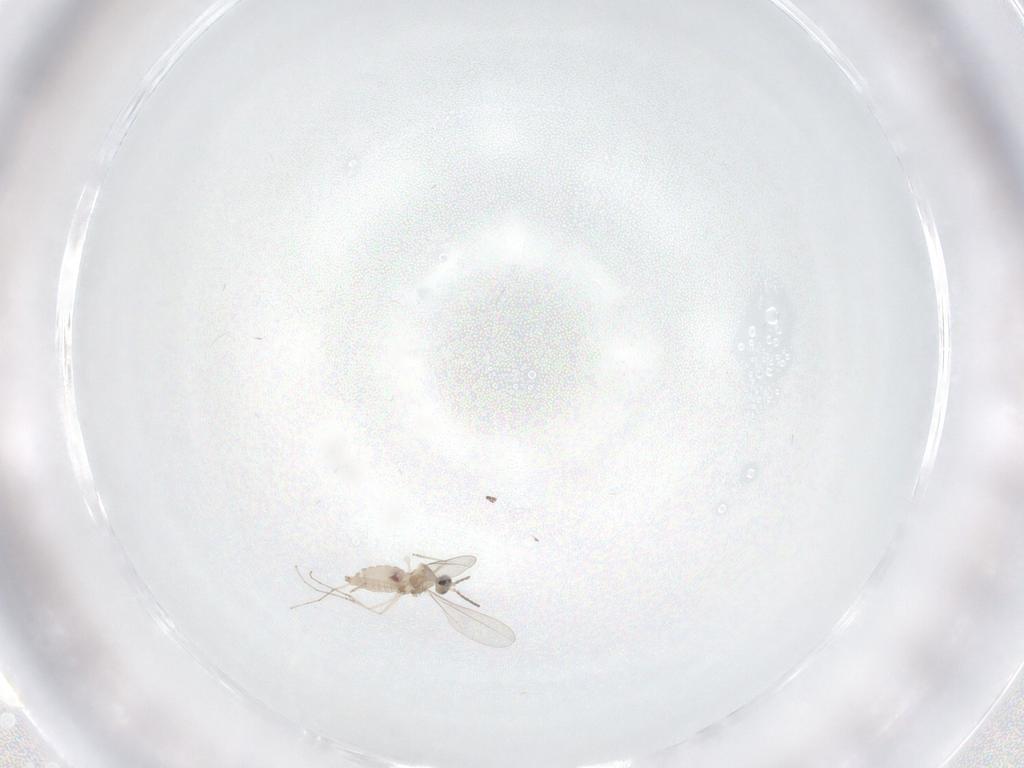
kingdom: Animalia
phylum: Arthropoda
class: Insecta
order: Diptera
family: Cecidomyiidae
